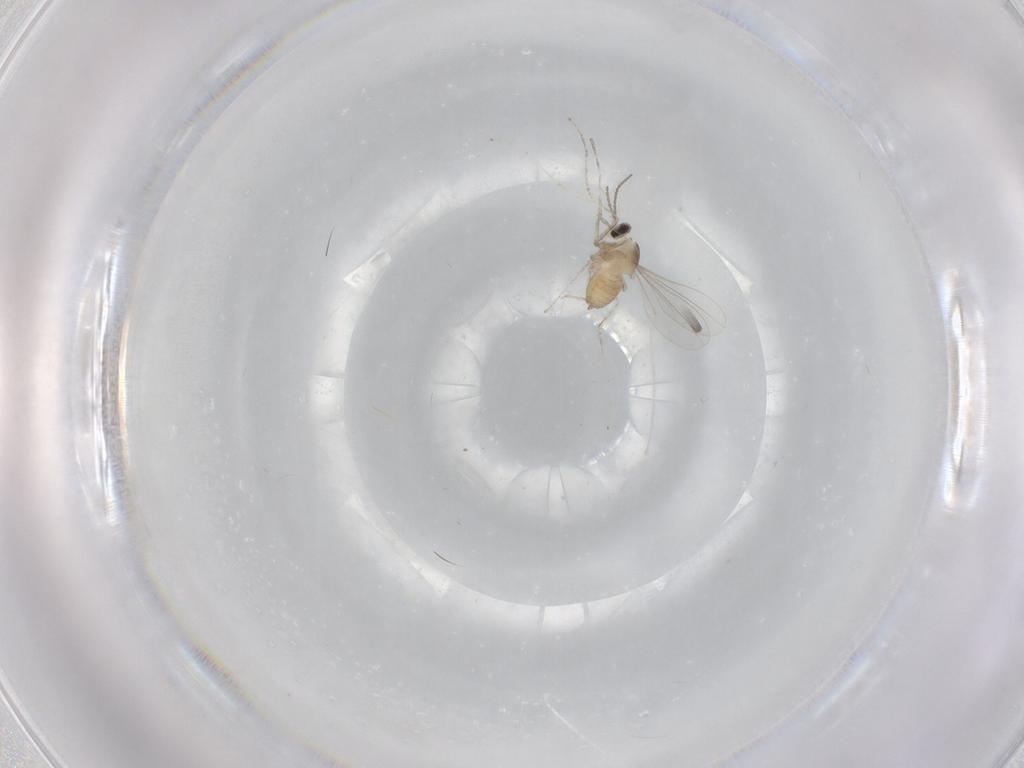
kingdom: Animalia
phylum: Arthropoda
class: Insecta
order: Diptera
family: Cecidomyiidae
